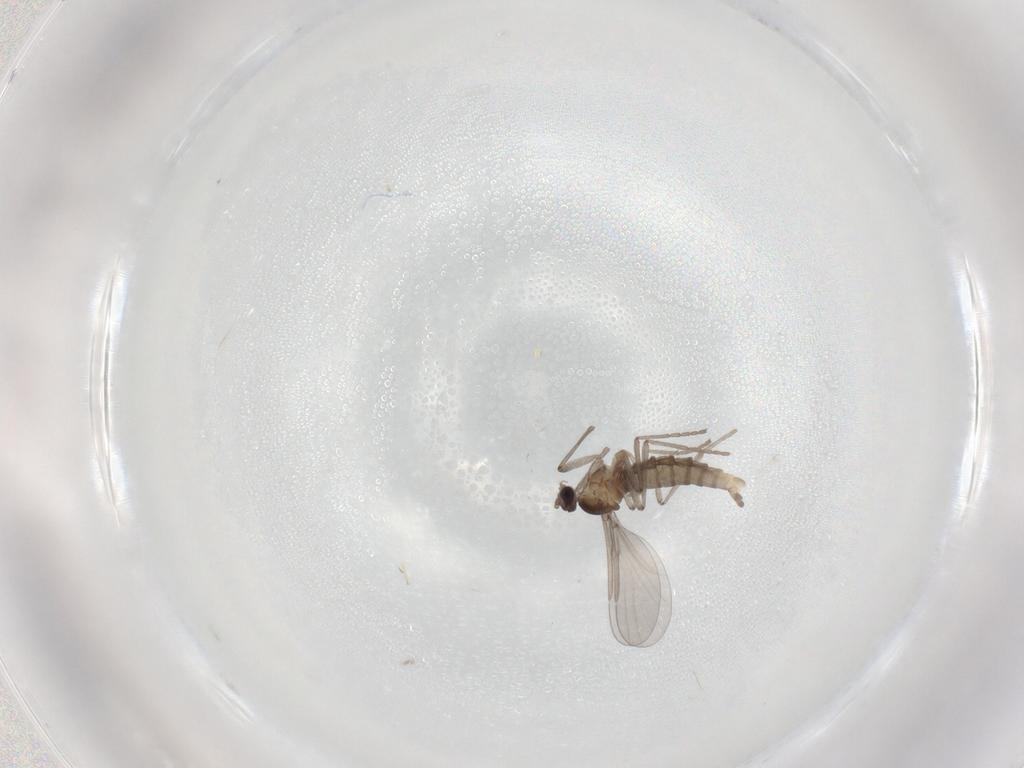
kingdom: Animalia
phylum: Arthropoda
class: Insecta
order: Diptera
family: Cecidomyiidae
